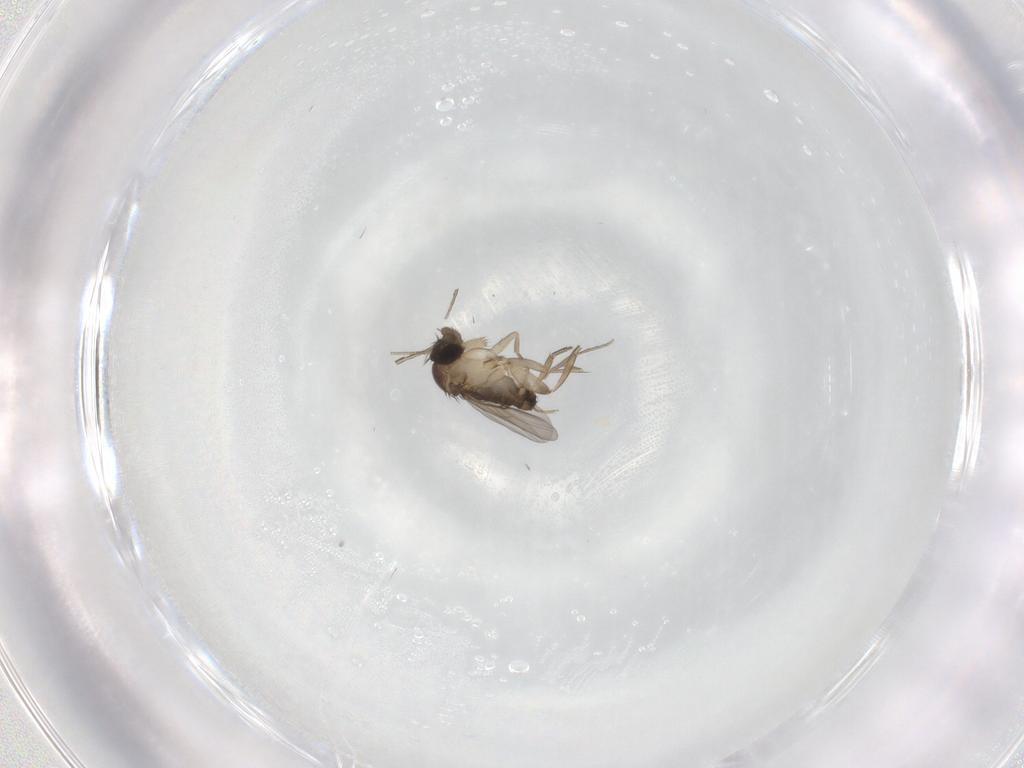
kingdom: Animalia
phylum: Arthropoda
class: Insecta
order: Diptera
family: Phoridae
